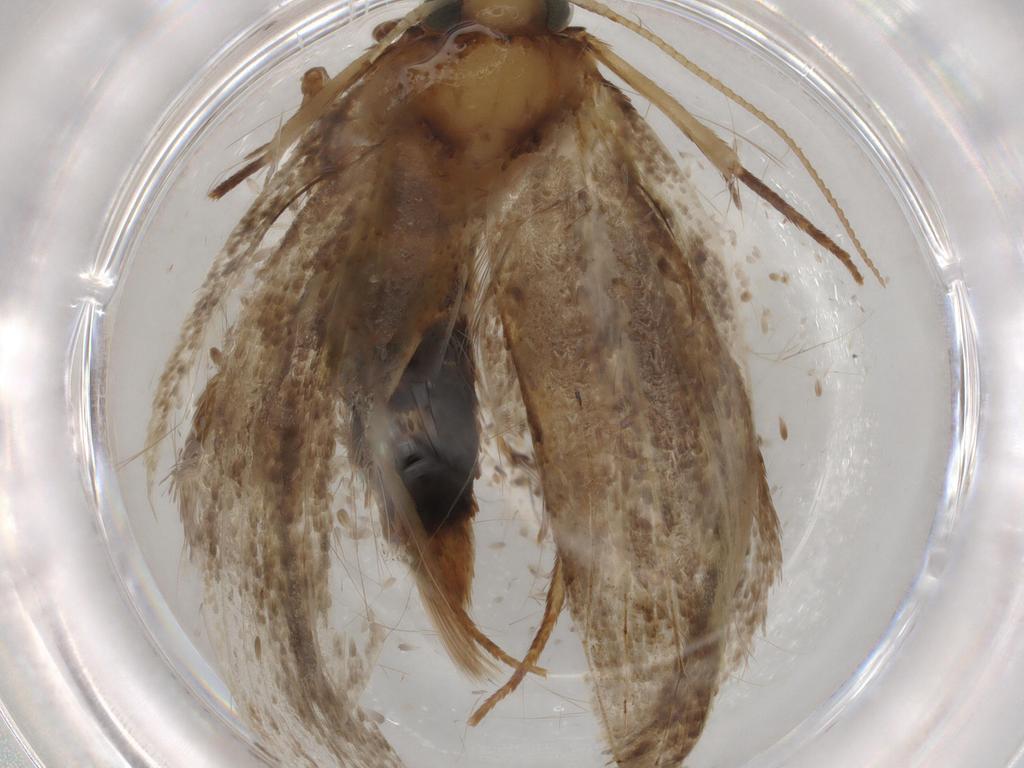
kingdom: Animalia
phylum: Arthropoda
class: Insecta
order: Lepidoptera
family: Tineidae
